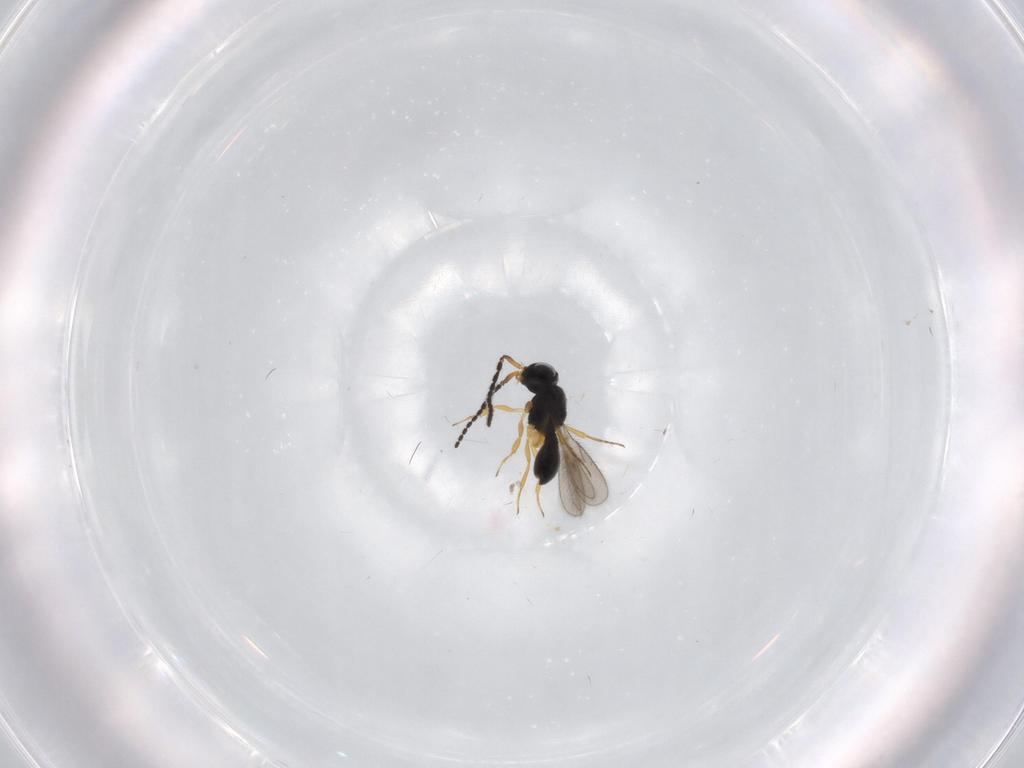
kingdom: Animalia
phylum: Arthropoda
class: Insecta
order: Hymenoptera
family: Scelionidae
